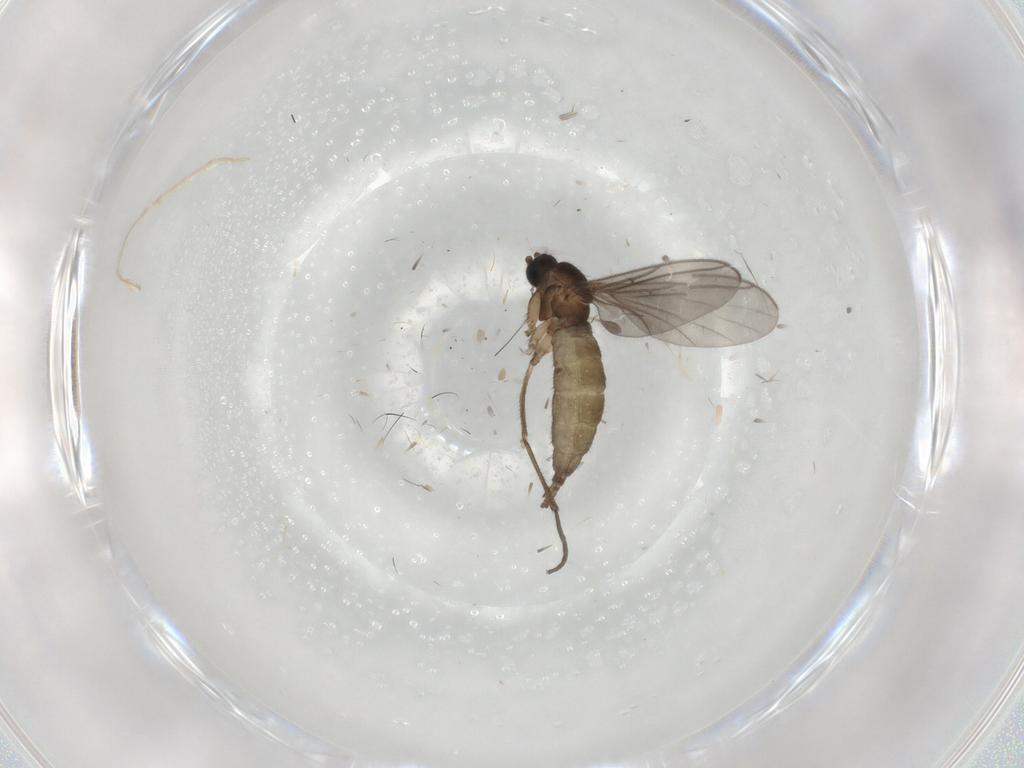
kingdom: Animalia
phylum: Arthropoda
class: Insecta
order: Diptera
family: Sciaridae
